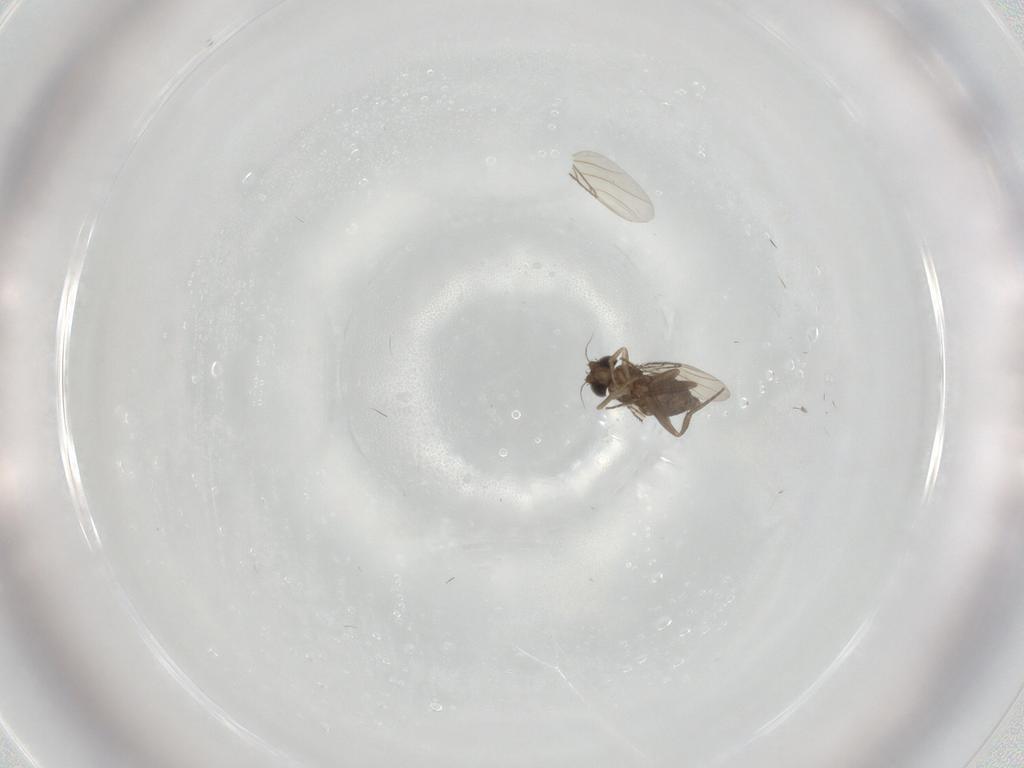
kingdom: Animalia
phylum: Arthropoda
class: Insecta
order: Diptera
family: Phoridae
